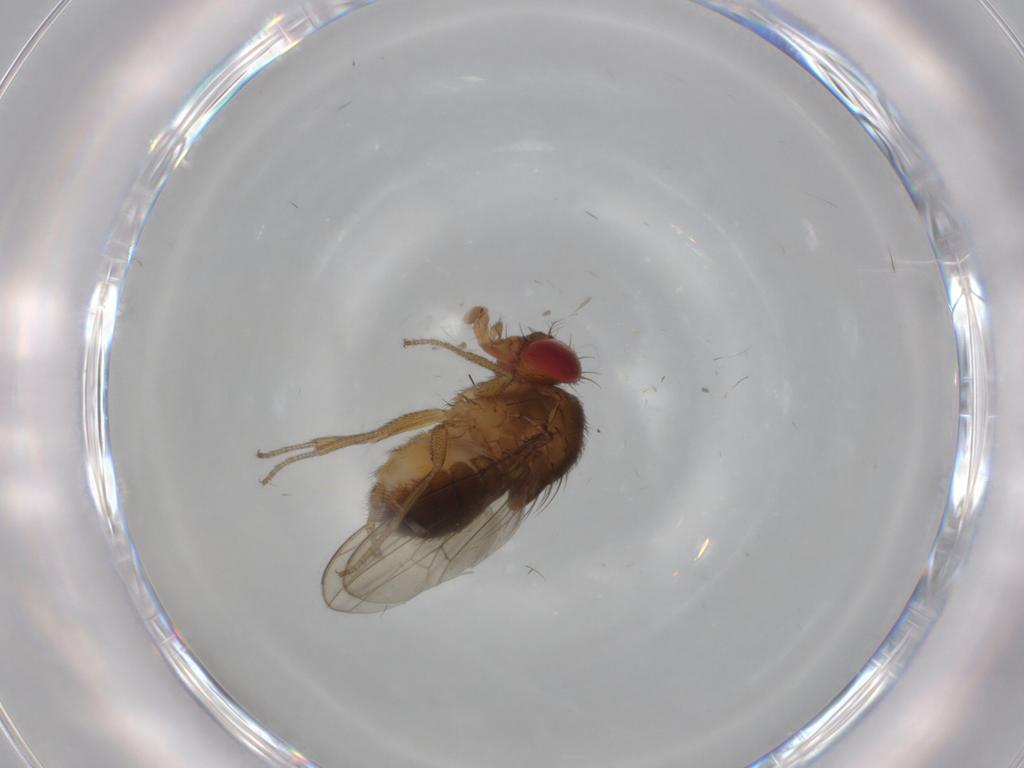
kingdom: Animalia
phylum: Arthropoda
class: Insecta
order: Diptera
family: Drosophilidae
